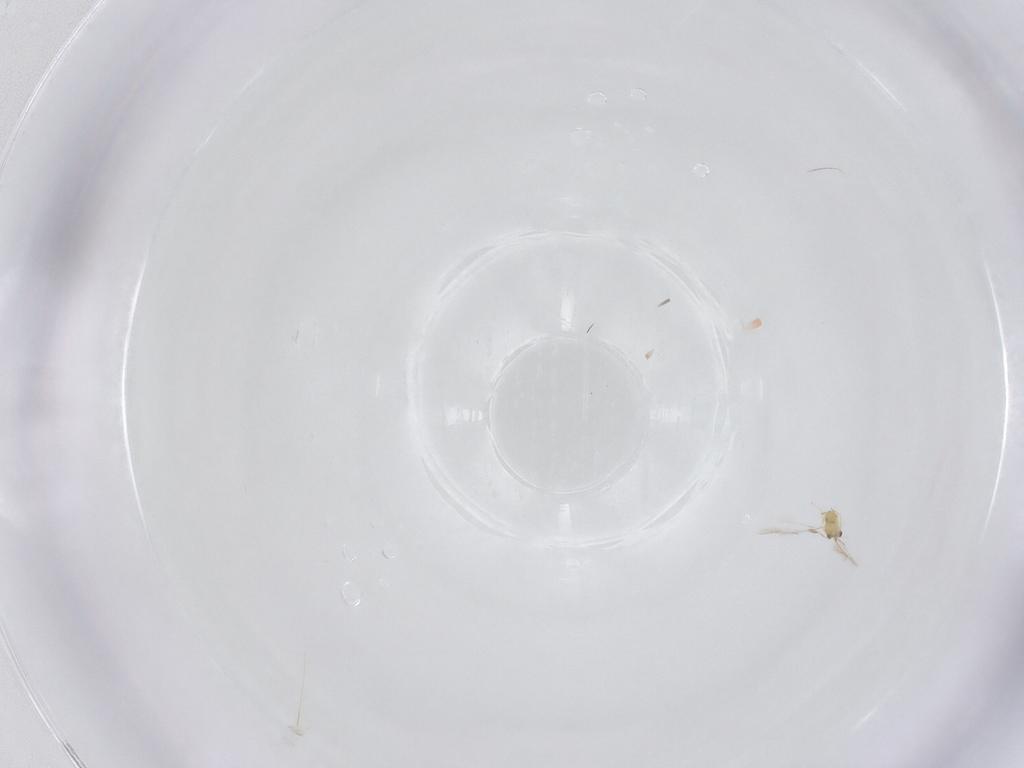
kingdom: Animalia
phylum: Arthropoda
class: Insecta
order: Hymenoptera
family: Mymaridae
